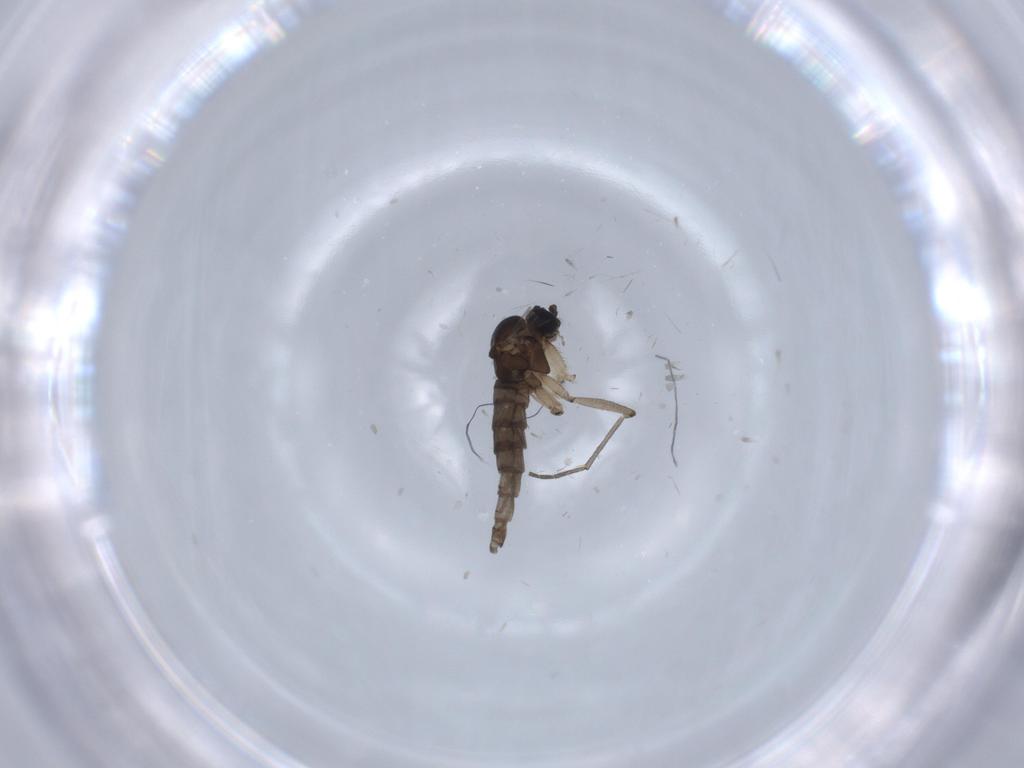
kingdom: Animalia
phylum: Arthropoda
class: Insecta
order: Diptera
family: Sciaridae
